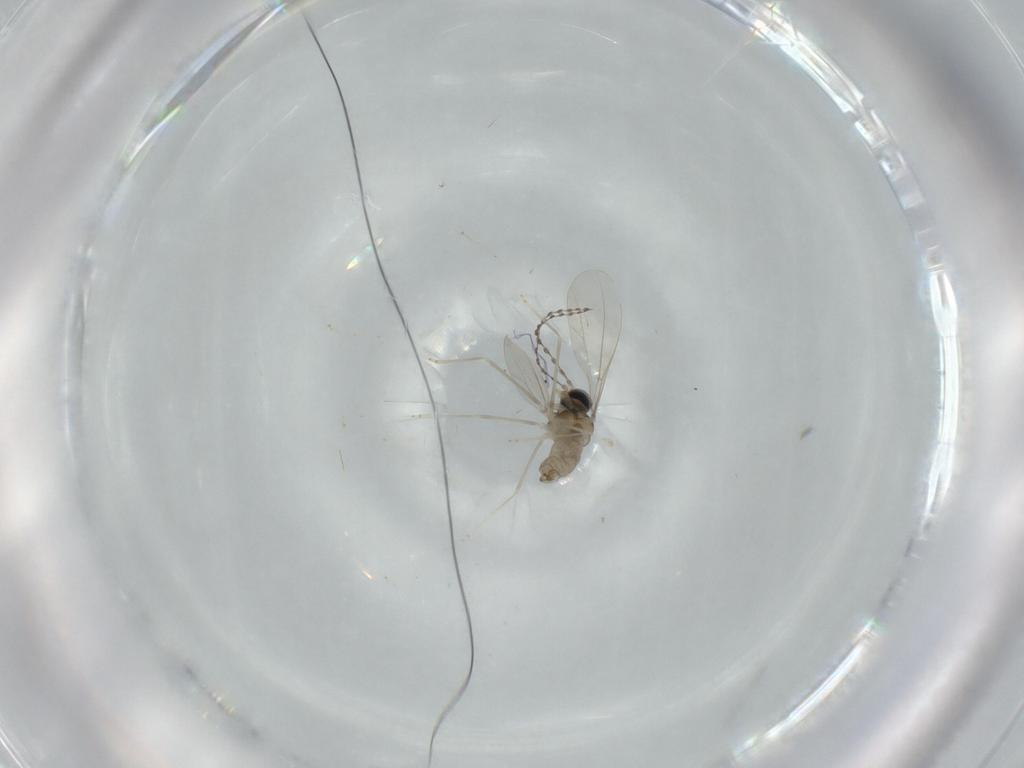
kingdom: Animalia
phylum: Arthropoda
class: Insecta
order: Diptera
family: Cecidomyiidae
